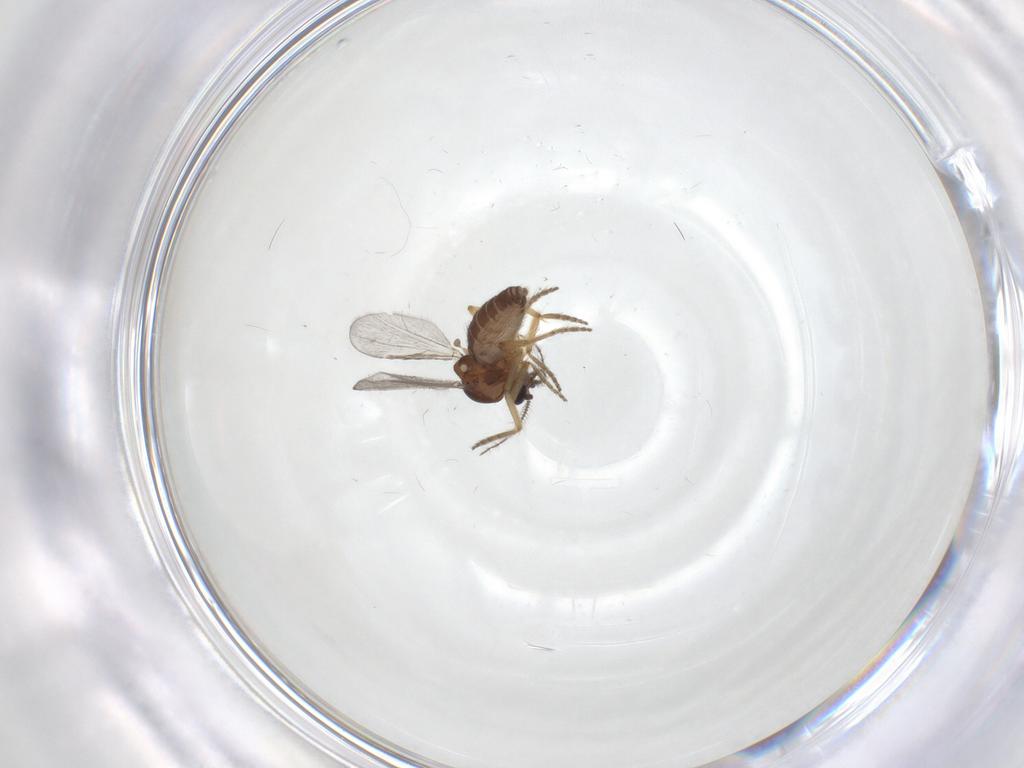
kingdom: Animalia
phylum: Arthropoda
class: Insecta
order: Diptera
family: Ceratopogonidae
